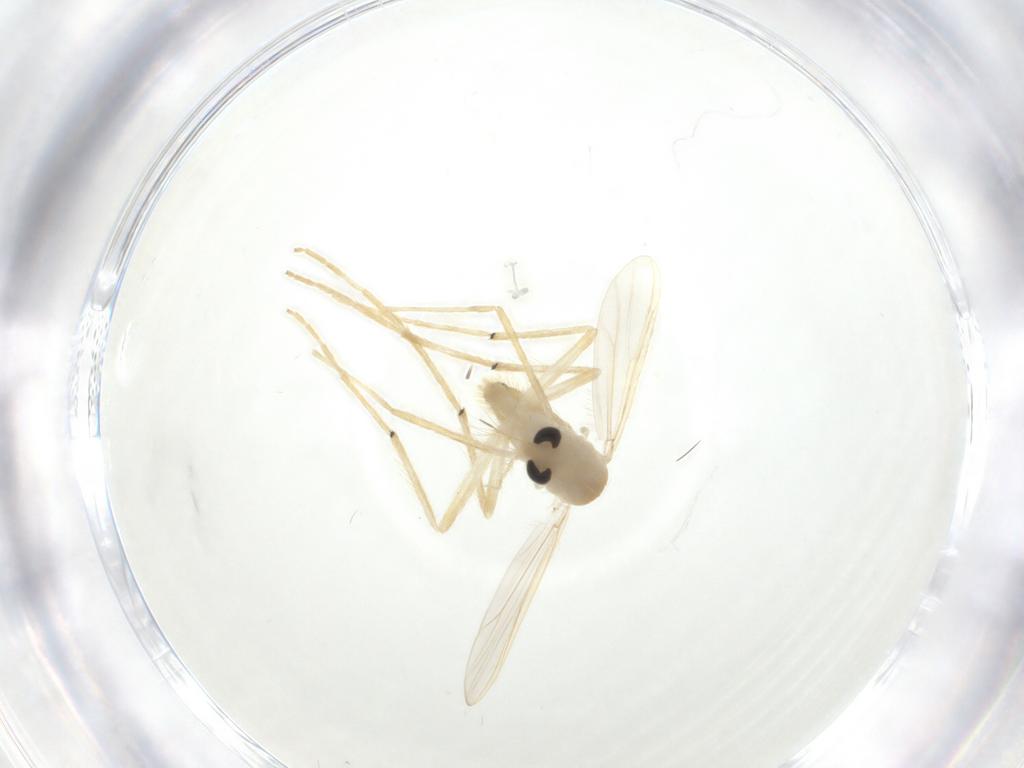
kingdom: Animalia
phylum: Arthropoda
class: Insecta
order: Diptera
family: Chironomidae
